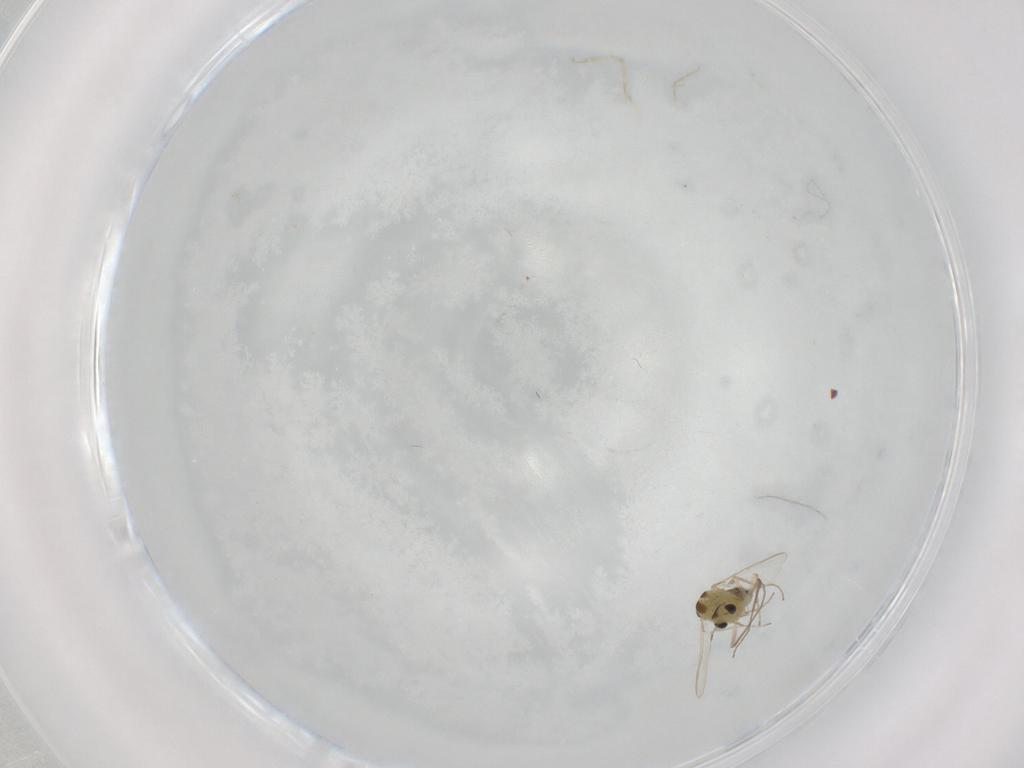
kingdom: Animalia
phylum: Arthropoda
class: Insecta
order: Diptera
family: Chironomidae
